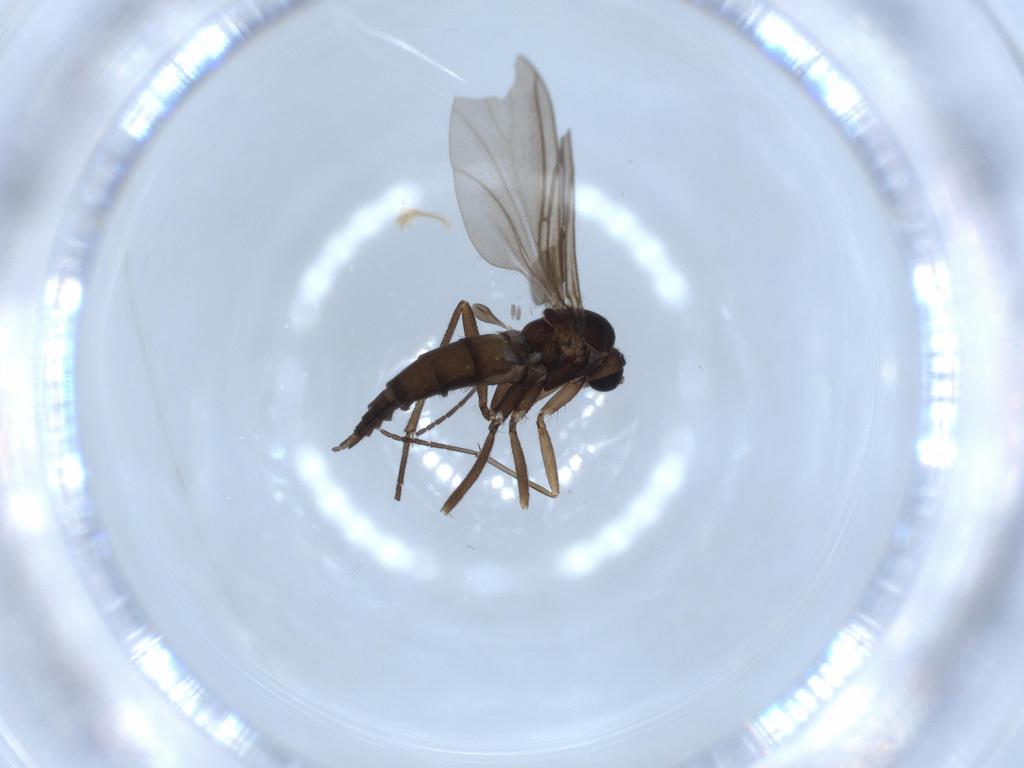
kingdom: Animalia
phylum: Arthropoda
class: Insecta
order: Diptera
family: Sciaridae
